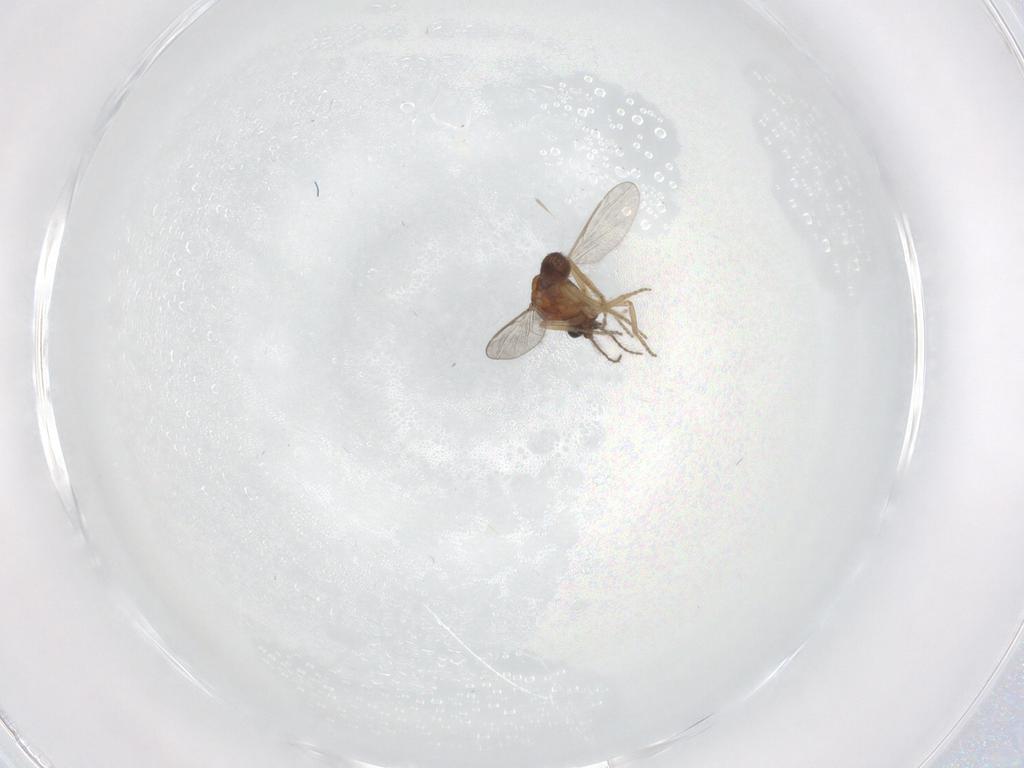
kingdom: Animalia
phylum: Arthropoda
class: Insecta
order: Diptera
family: Ceratopogonidae
